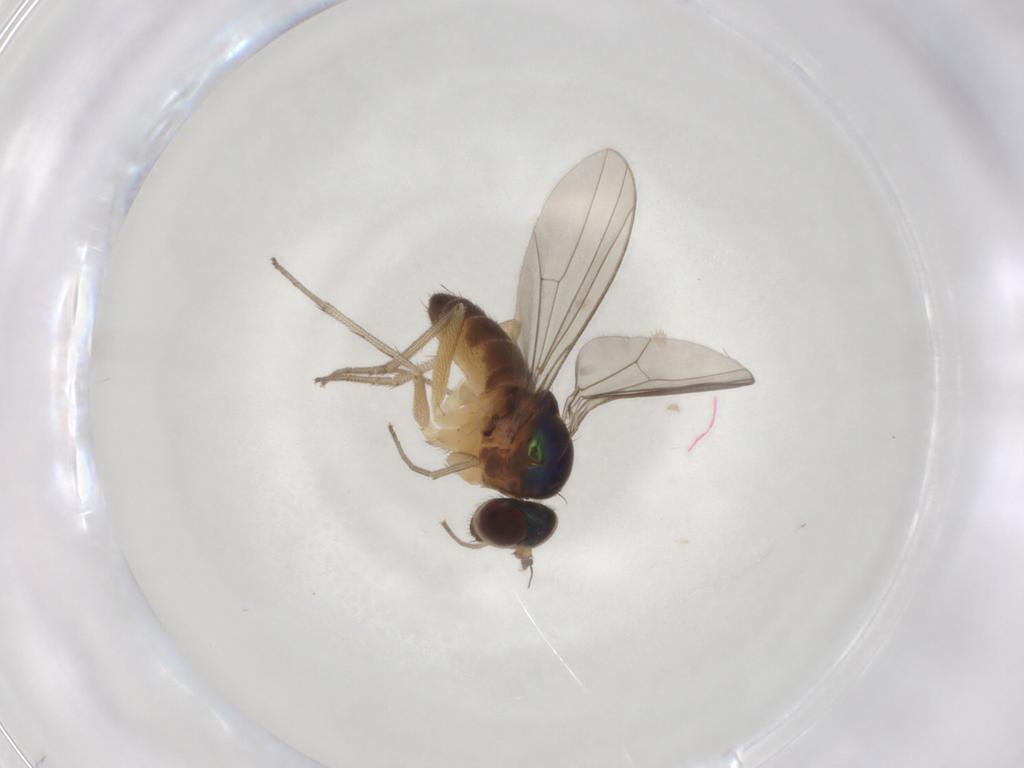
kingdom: Animalia
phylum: Arthropoda
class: Insecta
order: Diptera
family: Dolichopodidae
